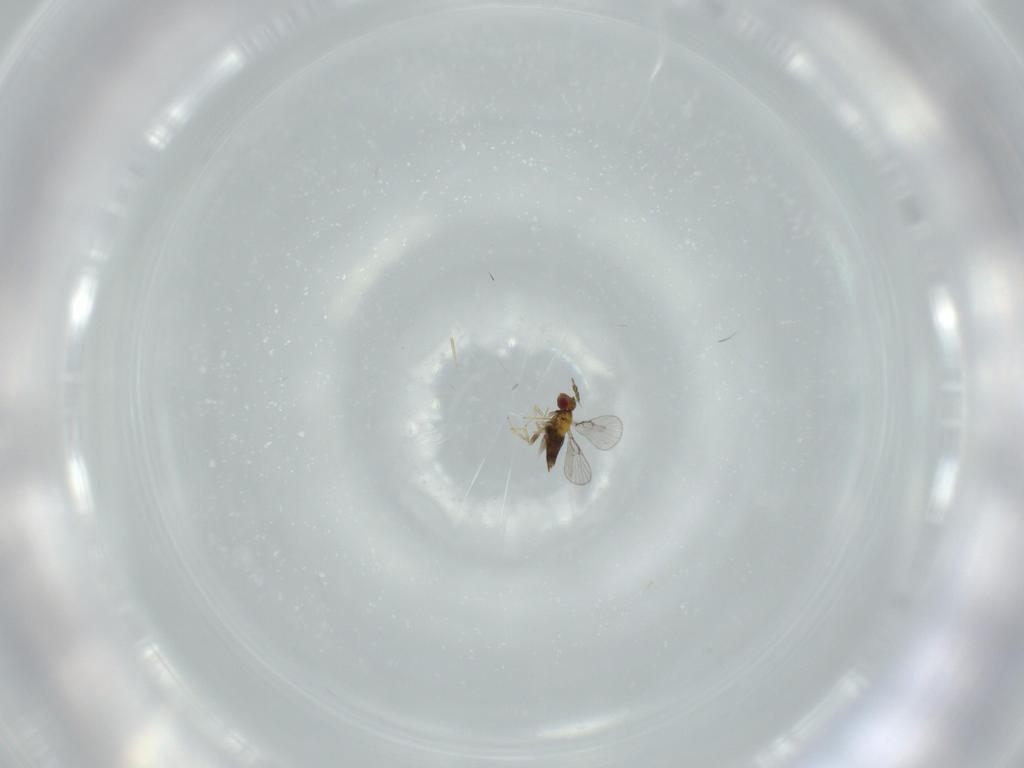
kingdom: Animalia
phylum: Arthropoda
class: Insecta
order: Hymenoptera
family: Trichogrammatidae
